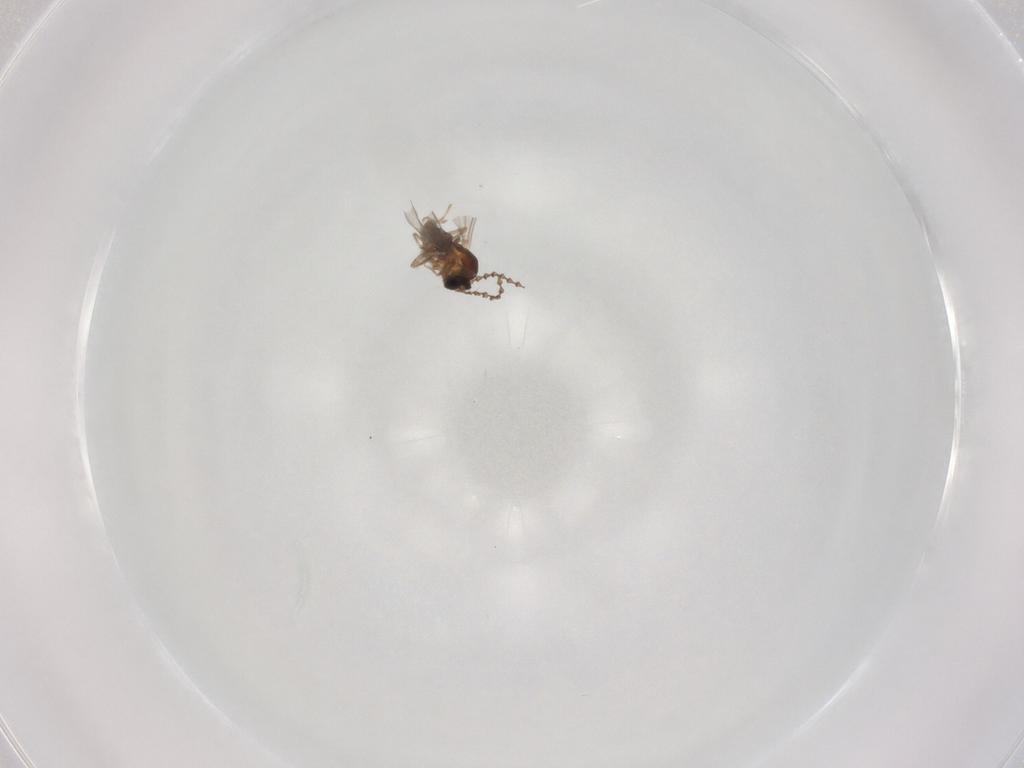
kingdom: Animalia
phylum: Arthropoda
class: Insecta
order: Diptera
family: Cecidomyiidae
